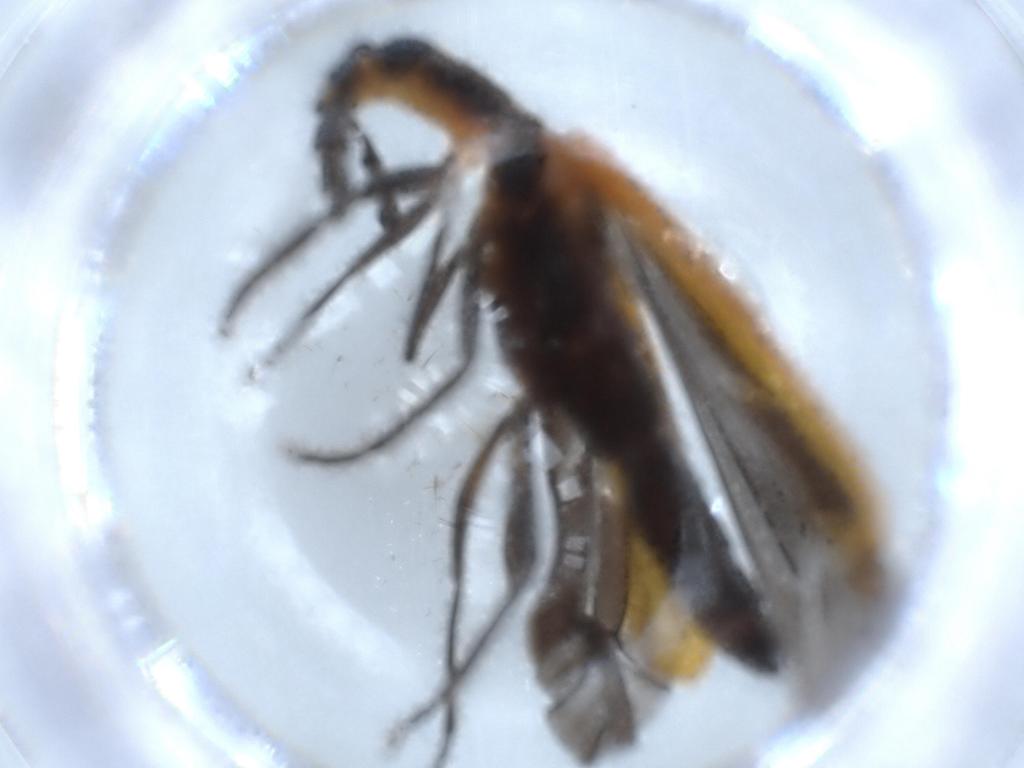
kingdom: Animalia
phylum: Arthropoda
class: Insecta
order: Coleoptera
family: Cleridae
